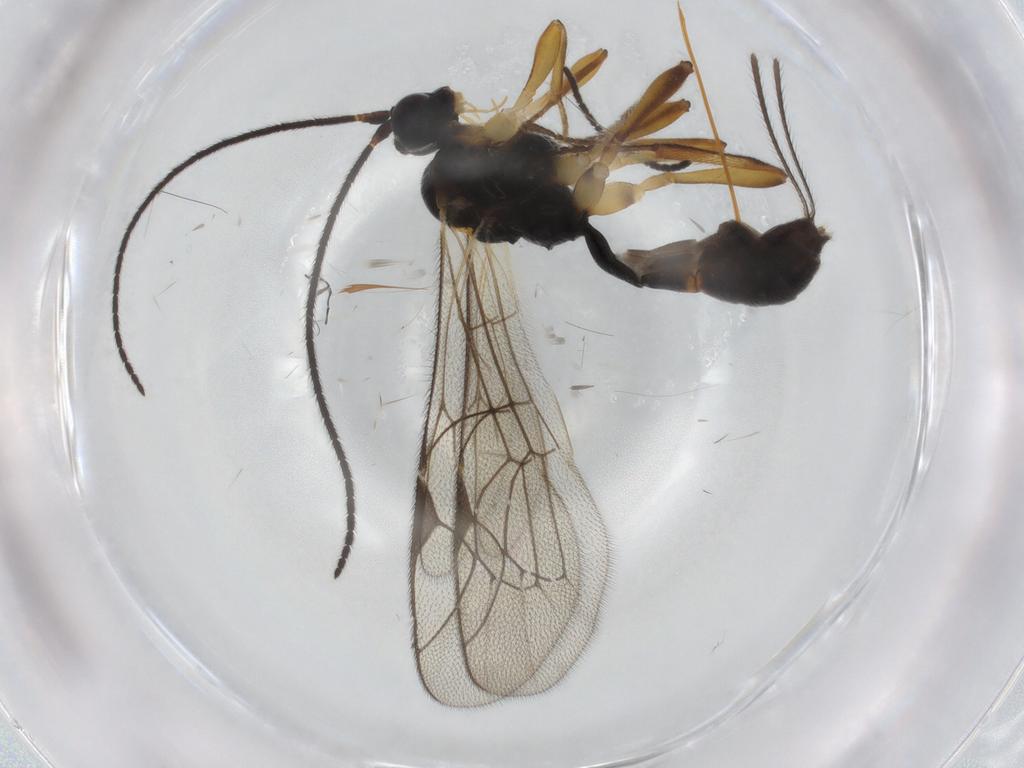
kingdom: Animalia
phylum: Arthropoda
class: Insecta
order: Hymenoptera
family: Ichneumonidae
